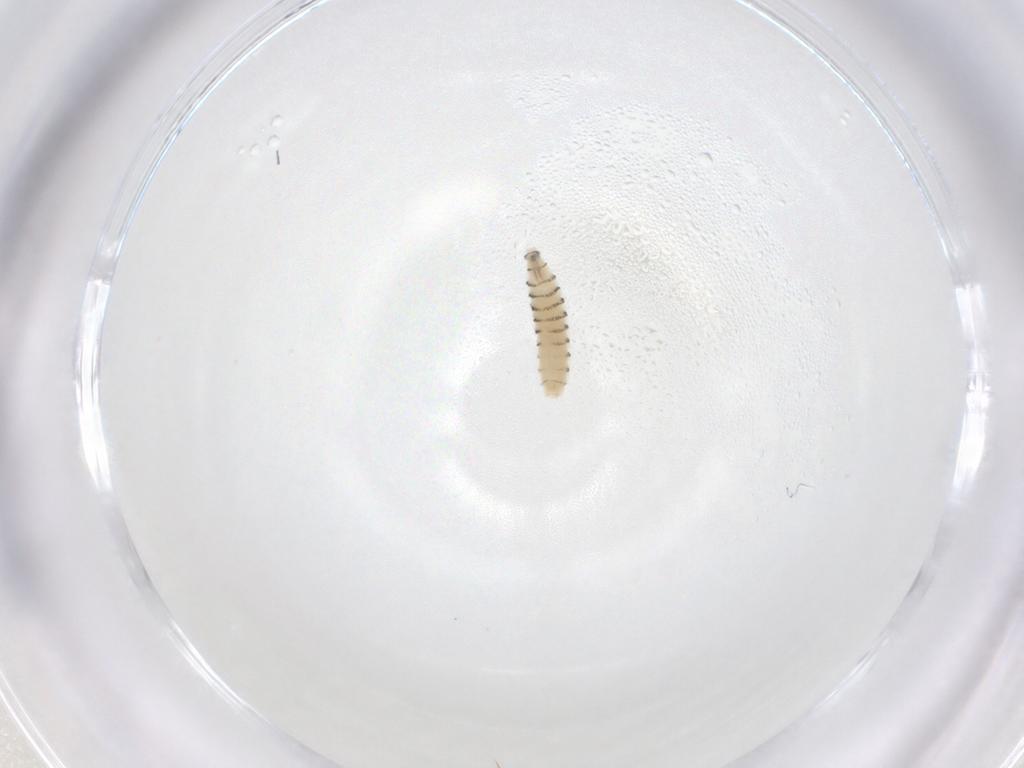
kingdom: Animalia
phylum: Arthropoda
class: Insecta
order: Diptera
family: Sarcophagidae
